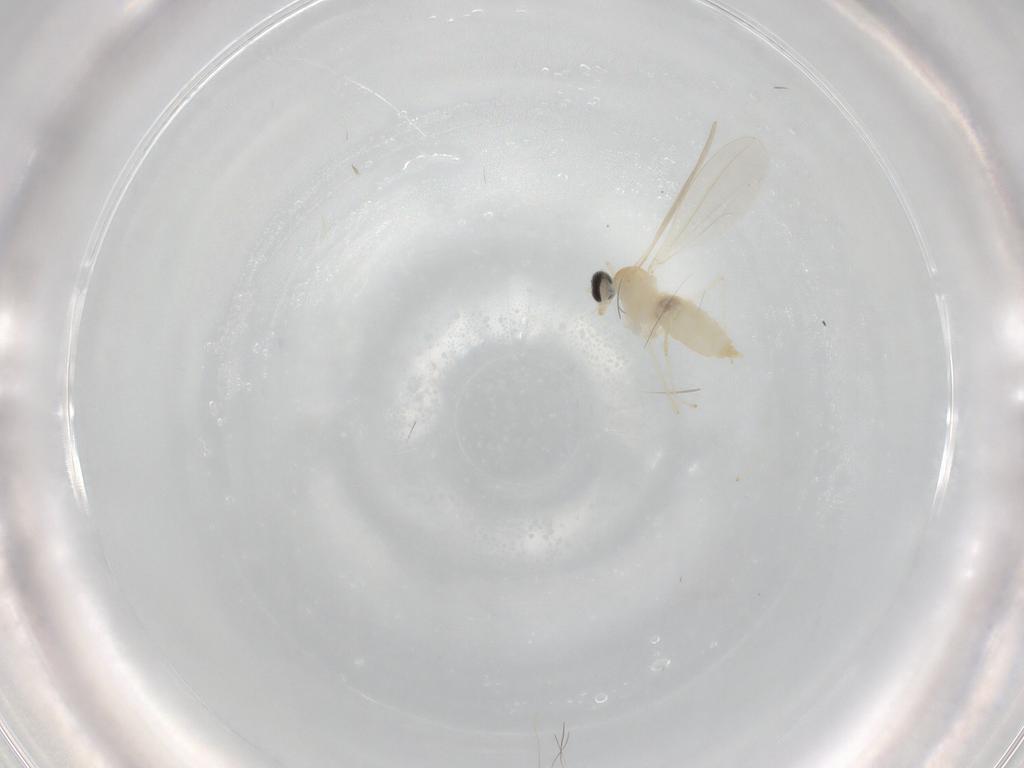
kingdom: Animalia
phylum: Arthropoda
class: Insecta
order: Diptera
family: Cecidomyiidae
